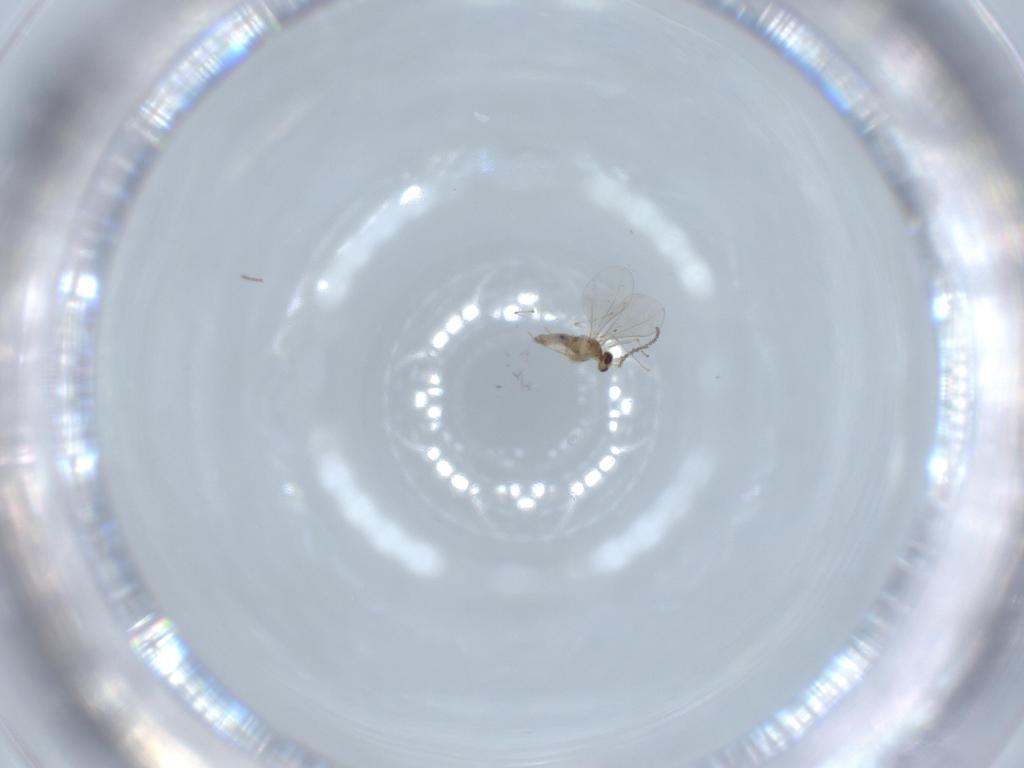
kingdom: Animalia
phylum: Arthropoda
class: Insecta
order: Diptera
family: Cecidomyiidae
